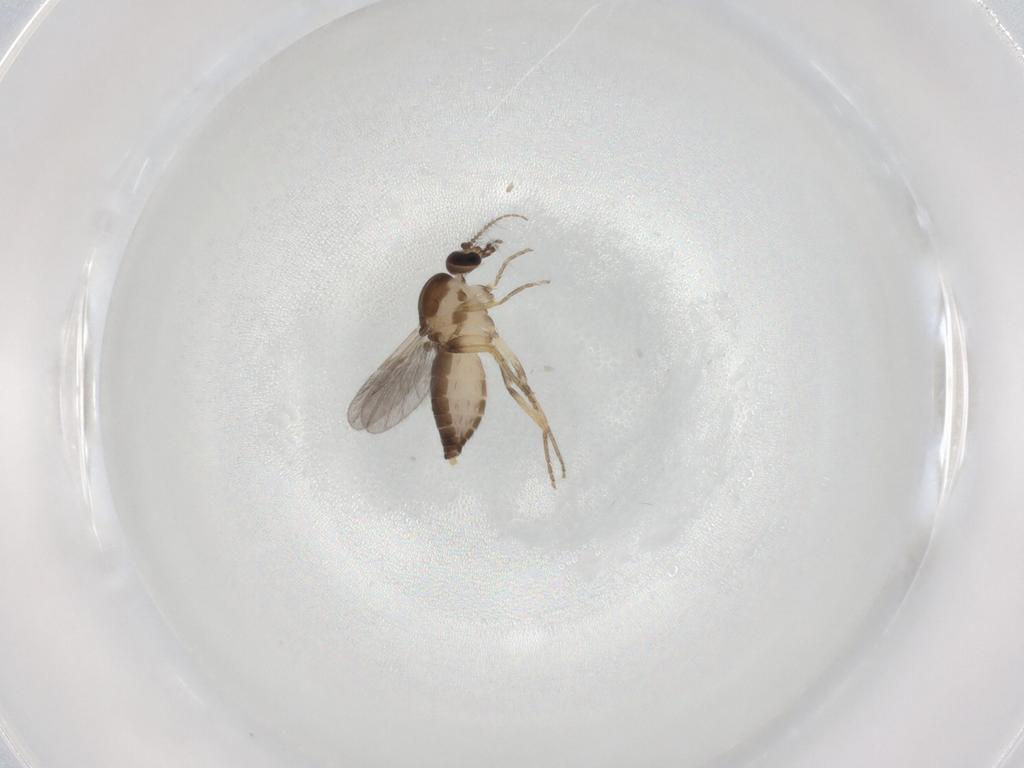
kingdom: Animalia
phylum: Arthropoda
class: Insecta
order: Diptera
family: Ceratopogonidae
